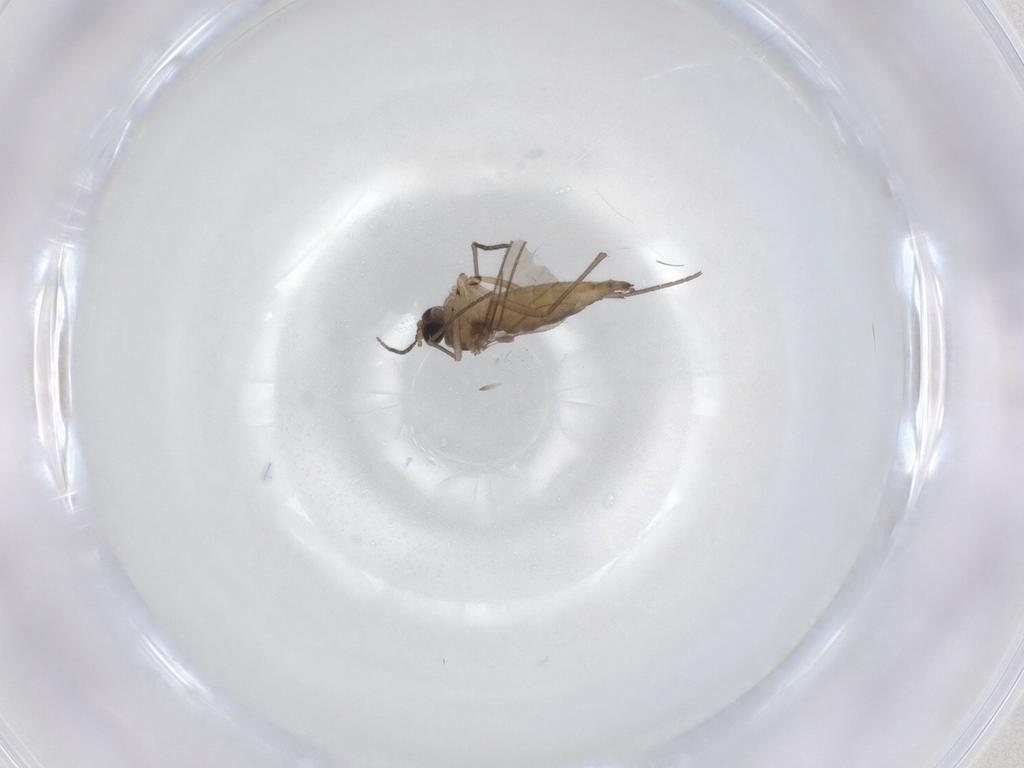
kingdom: Animalia
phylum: Arthropoda
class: Insecta
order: Diptera
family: Sciaridae
